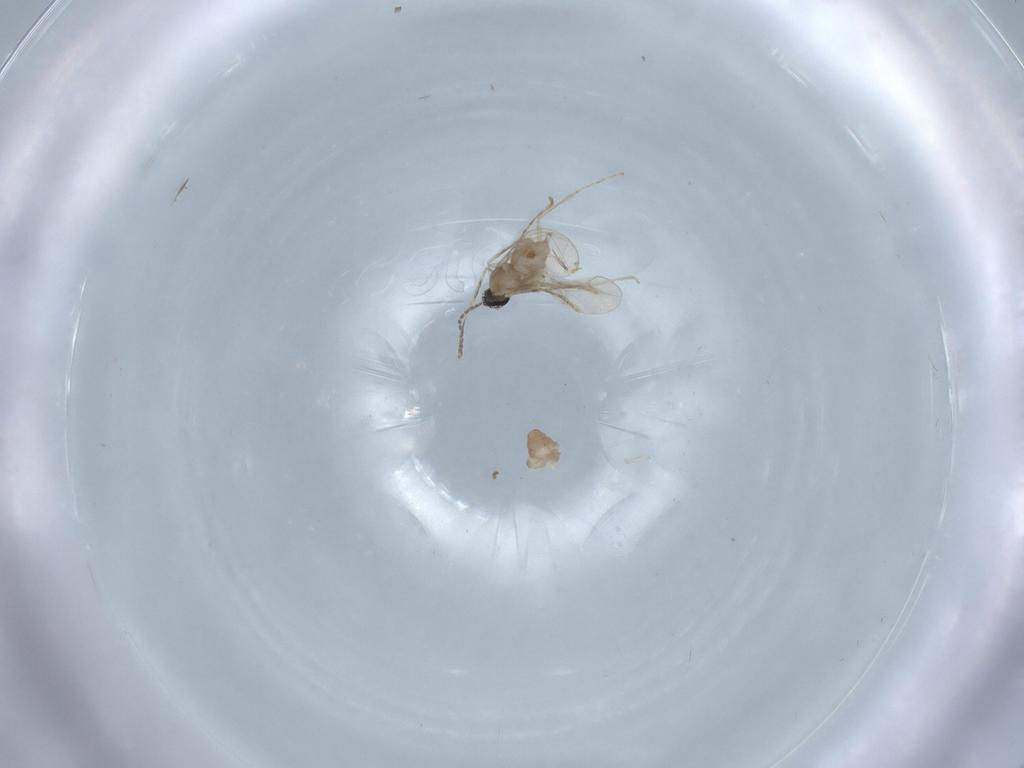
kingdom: Animalia
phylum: Arthropoda
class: Insecta
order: Diptera
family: Chironomidae
